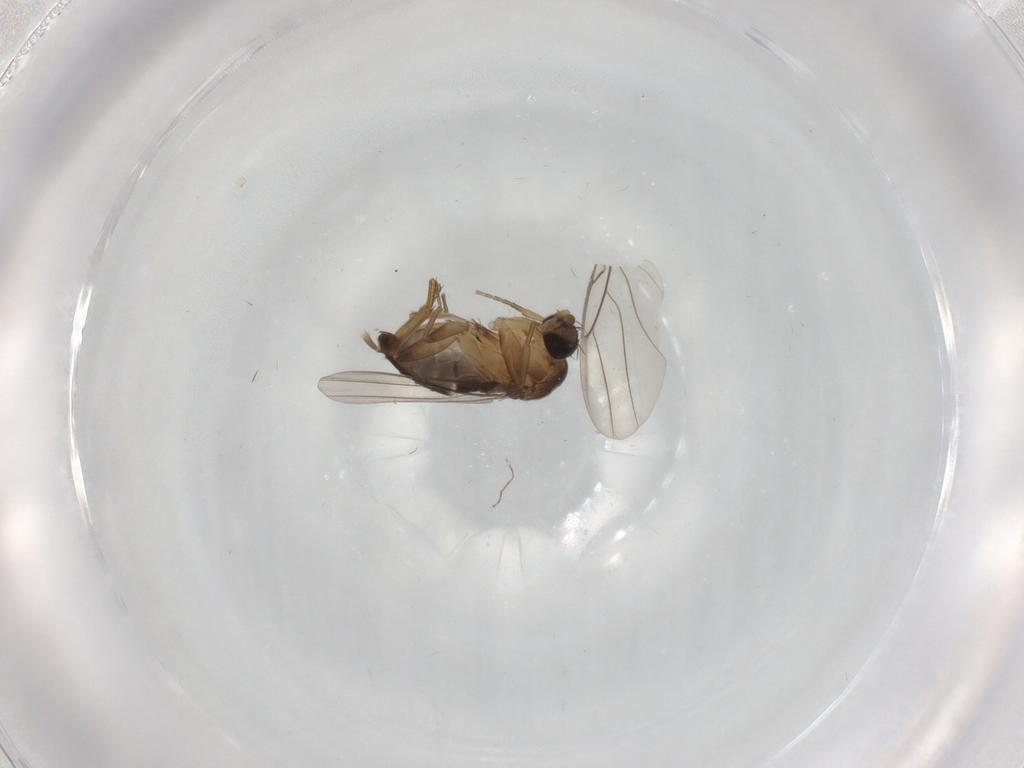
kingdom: Animalia
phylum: Arthropoda
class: Insecta
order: Diptera
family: Phoridae
